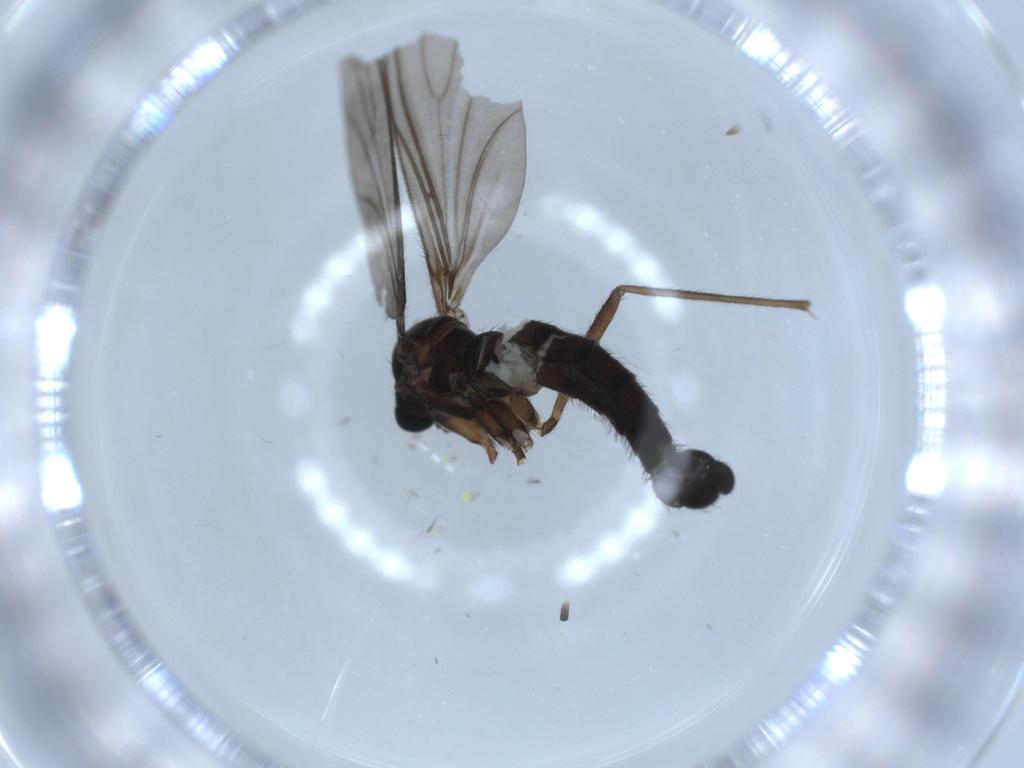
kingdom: Animalia
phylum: Arthropoda
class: Insecta
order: Diptera
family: Sciaridae
